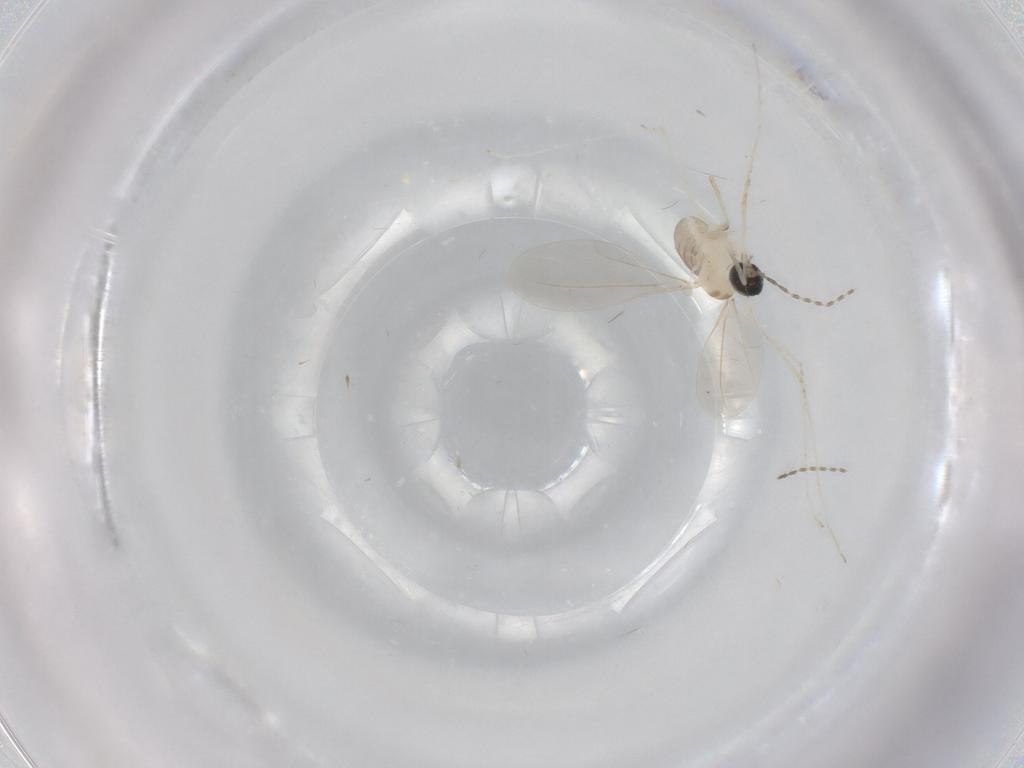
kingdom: Animalia
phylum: Arthropoda
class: Insecta
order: Diptera
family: Cecidomyiidae
